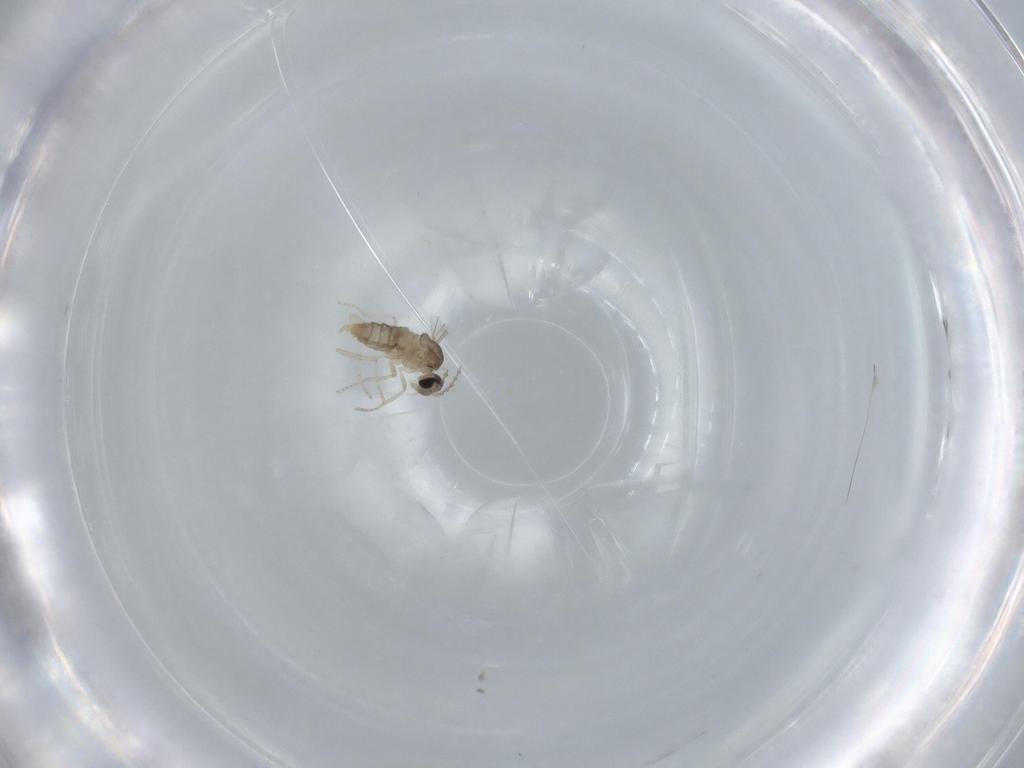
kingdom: Animalia
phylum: Arthropoda
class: Insecta
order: Diptera
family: Cecidomyiidae
